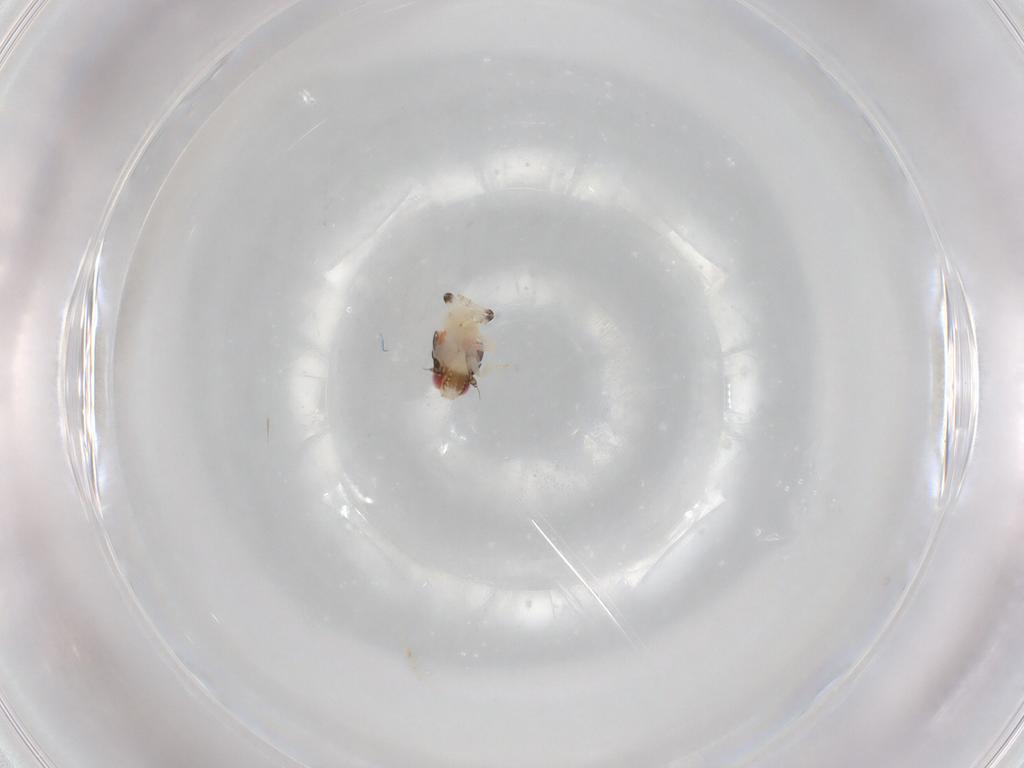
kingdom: Animalia
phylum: Arthropoda
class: Insecta
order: Hemiptera
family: Nogodinidae
